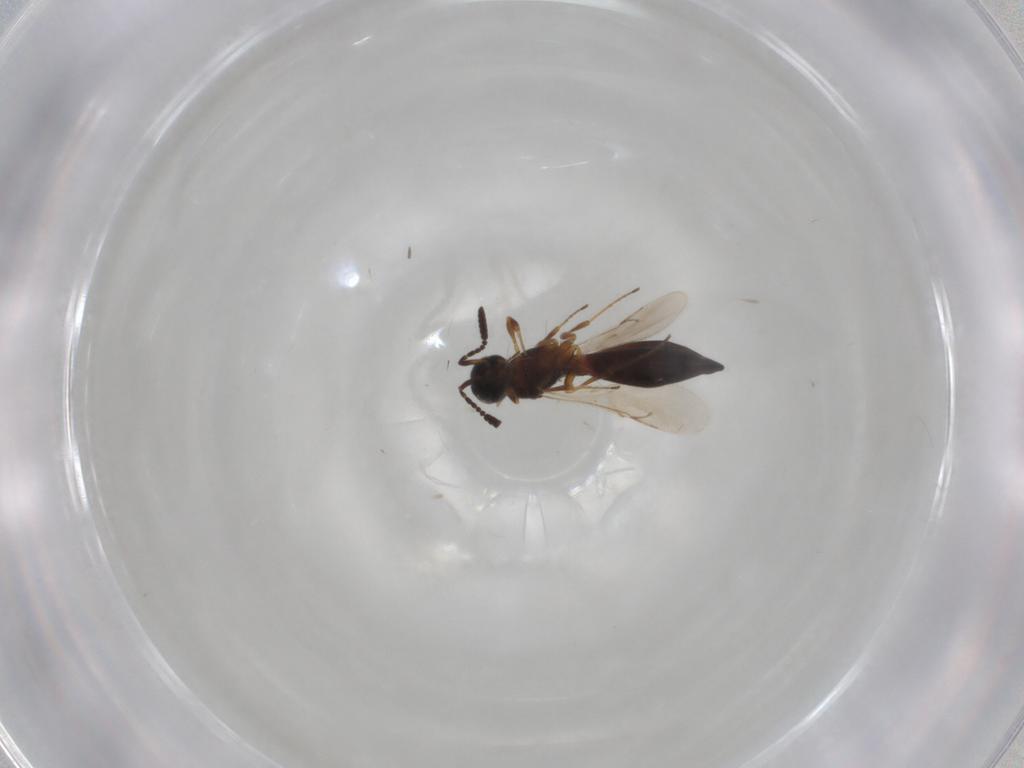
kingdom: Animalia
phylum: Arthropoda
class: Insecta
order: Hymenoptera
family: Scelionidae
